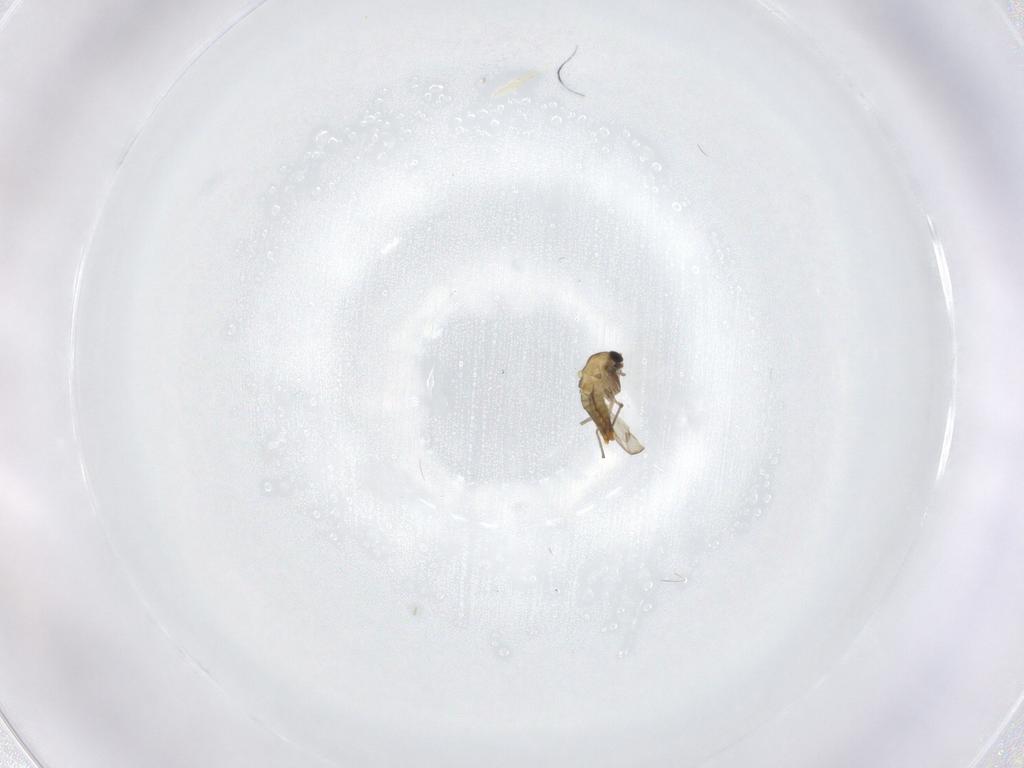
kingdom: Animalia
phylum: Arthropoda
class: Insecta
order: Diptera
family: Chironomidae
